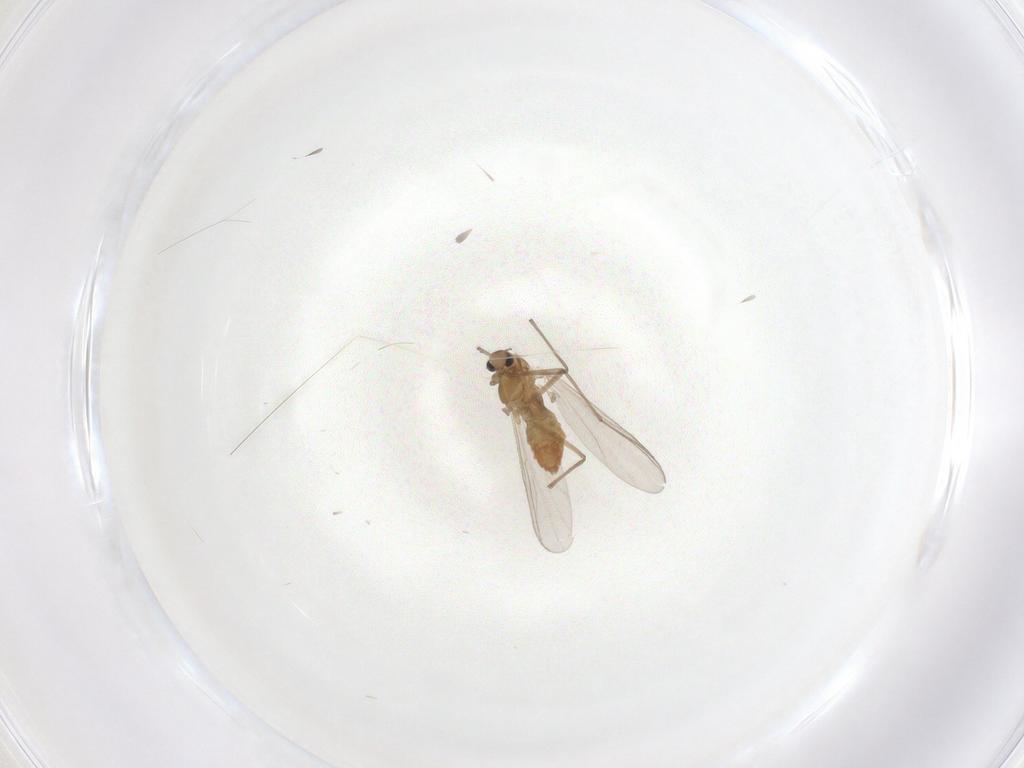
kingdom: Animalia
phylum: Arthropoda
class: Insecta
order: Diptera
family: Chironomidae
